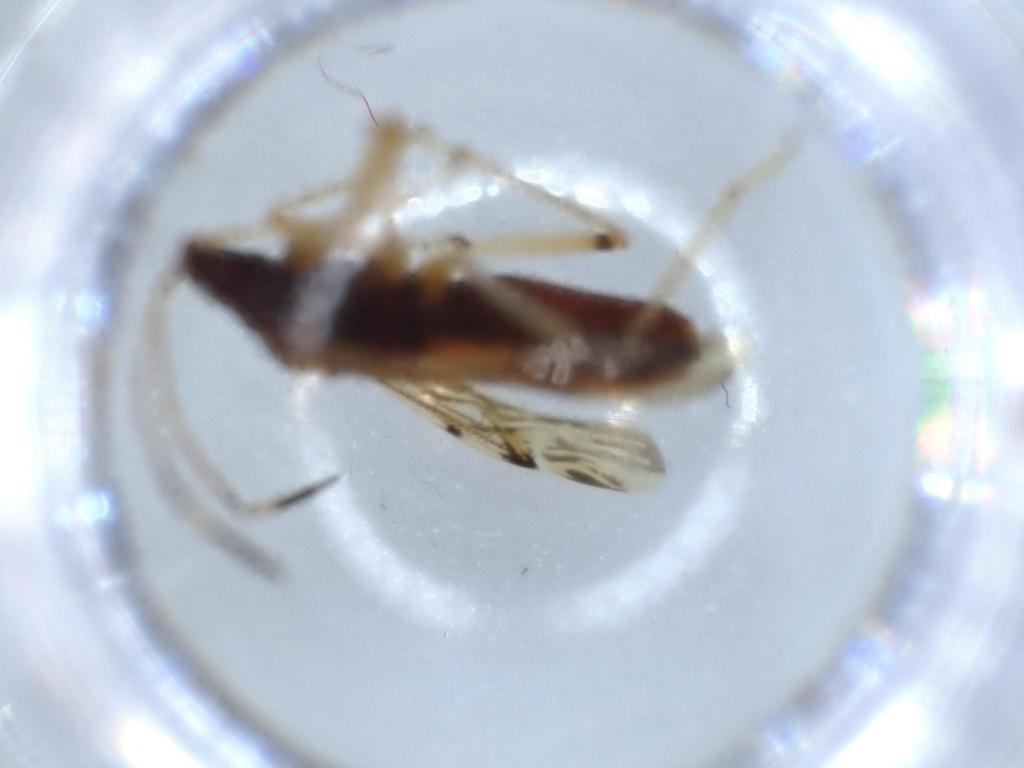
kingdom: Animalia
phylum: Arthropoda
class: Insecta
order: Hemiptera
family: Rhyparochromidae
